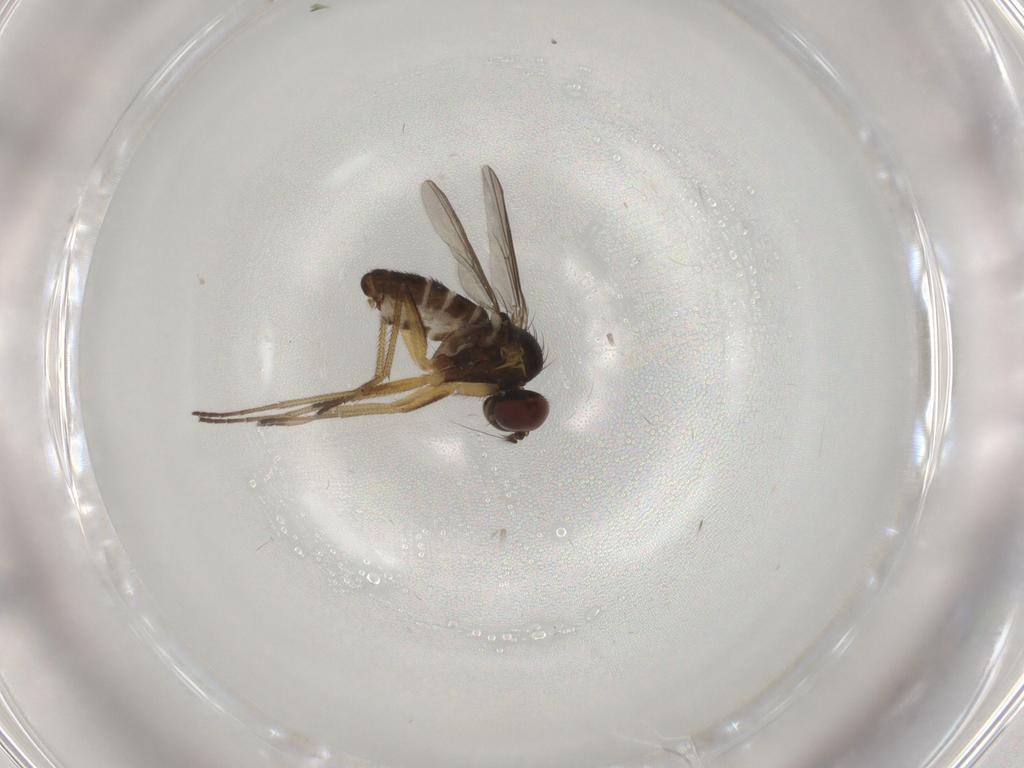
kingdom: Animalia
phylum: Arthropoda
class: Insecta
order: Diptera
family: Dolichopodidae
